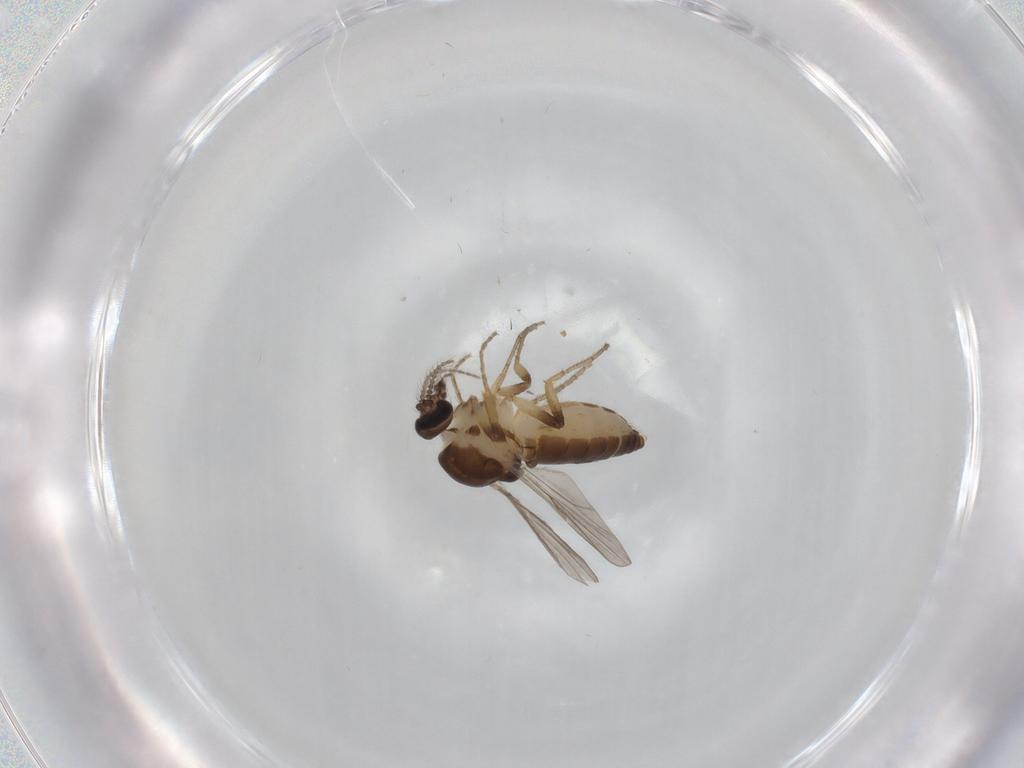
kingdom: Animalia
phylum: Arthropoda
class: Insecta
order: Diptera
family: Ceratopogonidae
